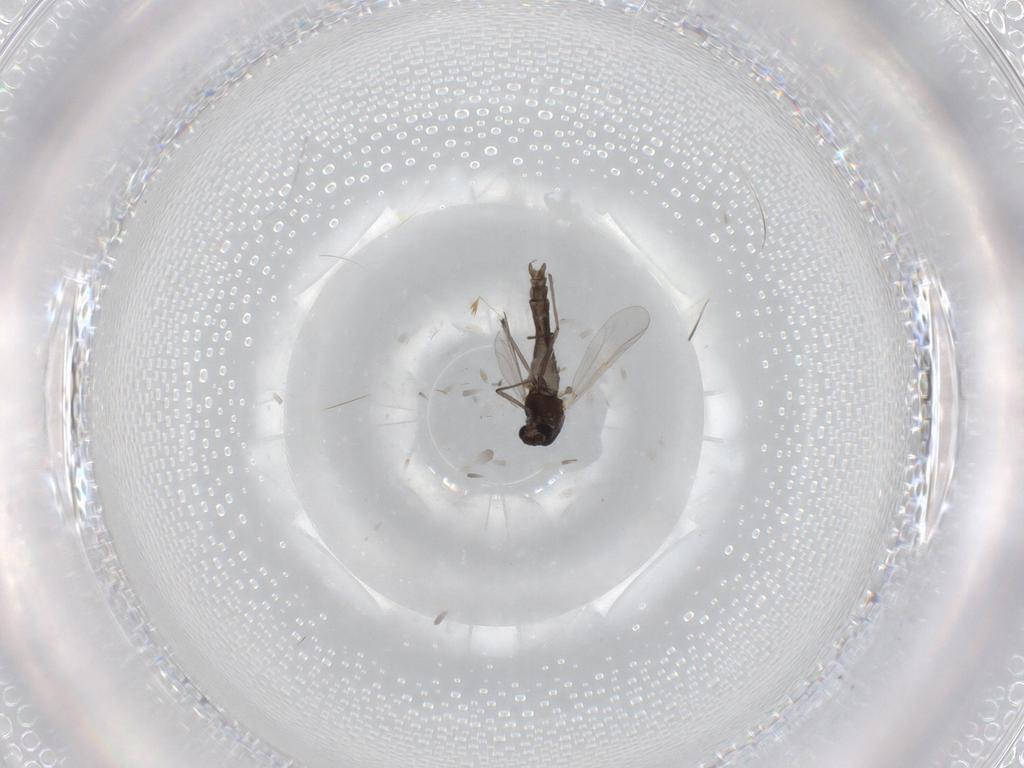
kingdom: Animalia
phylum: Arthropoda
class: Insecta
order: Diptera
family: Chironomidae
